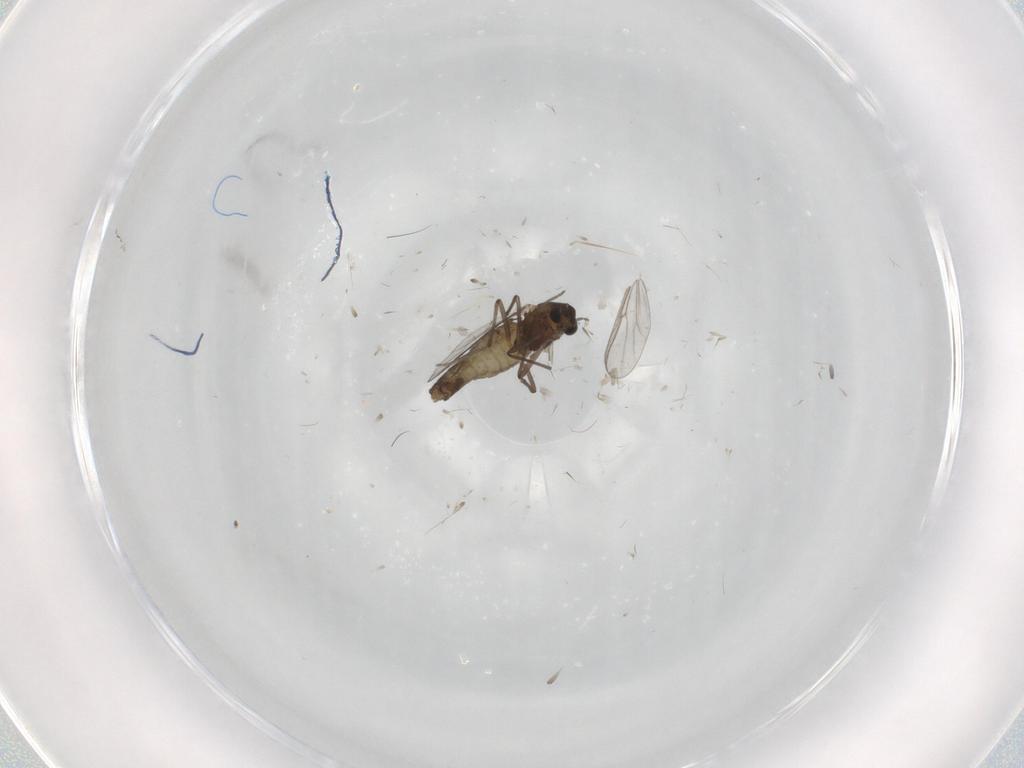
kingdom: Animalia
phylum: Arthropoda
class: Insecta
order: Diptera
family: Chironomidae
